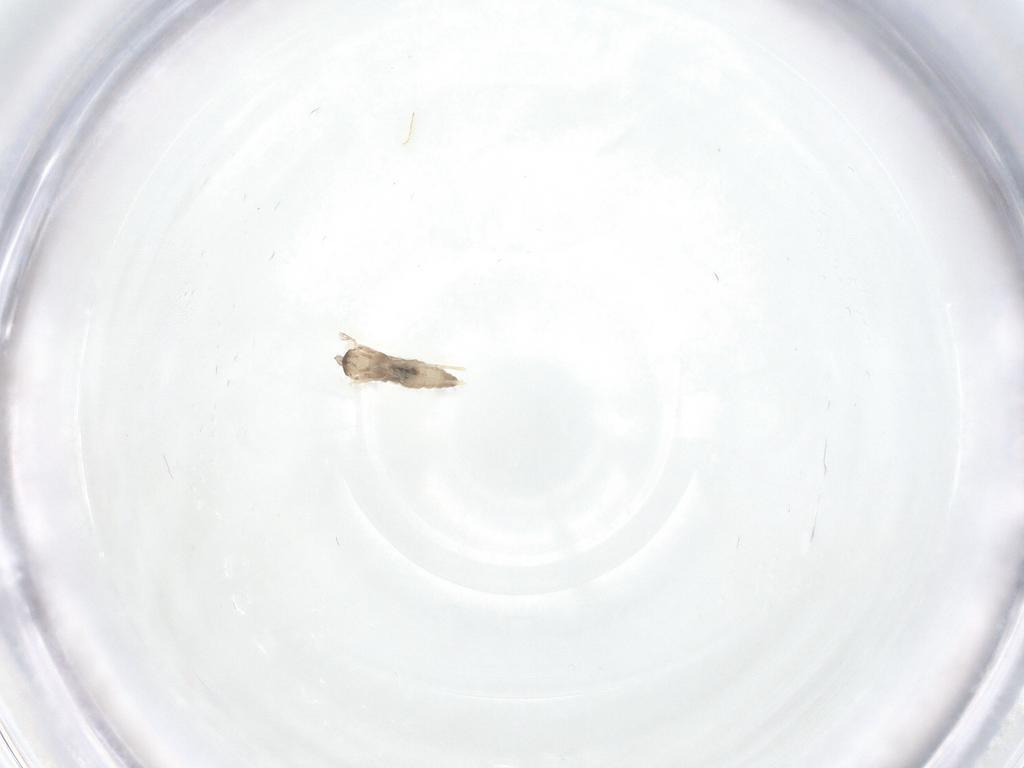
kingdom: Animalia
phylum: Arthropoda
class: Insecta
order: Diptera
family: Cecidomyiidae
